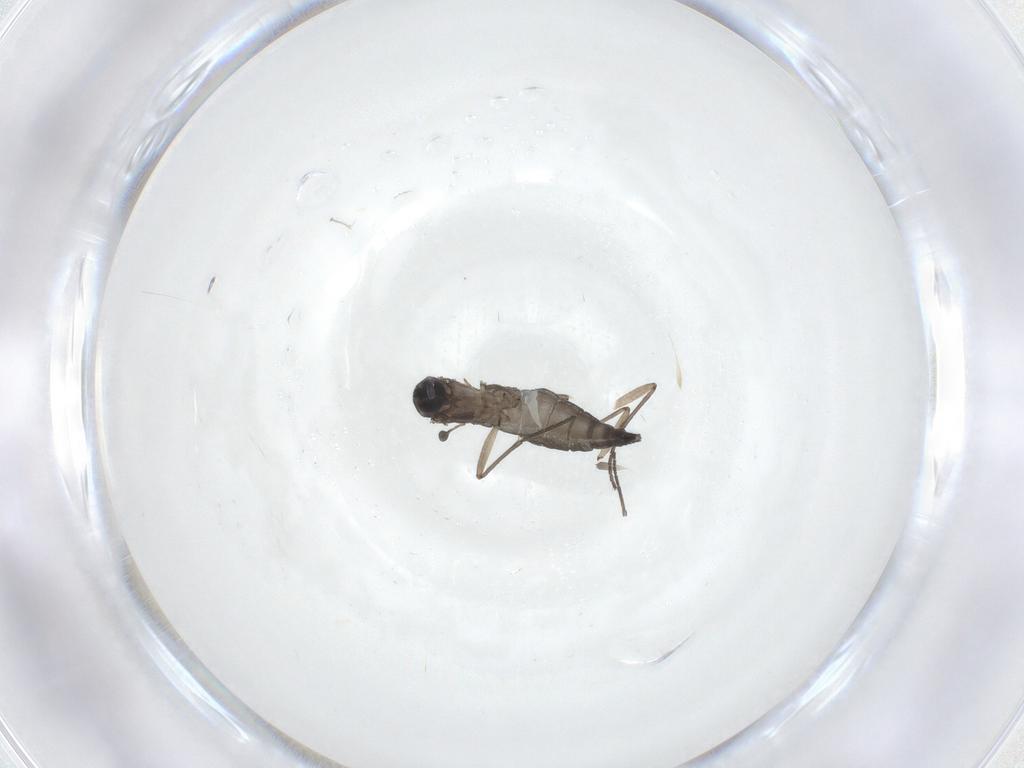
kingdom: Animalia
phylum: Arthropoda
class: Insecta
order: Diptera
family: Sciaridae
